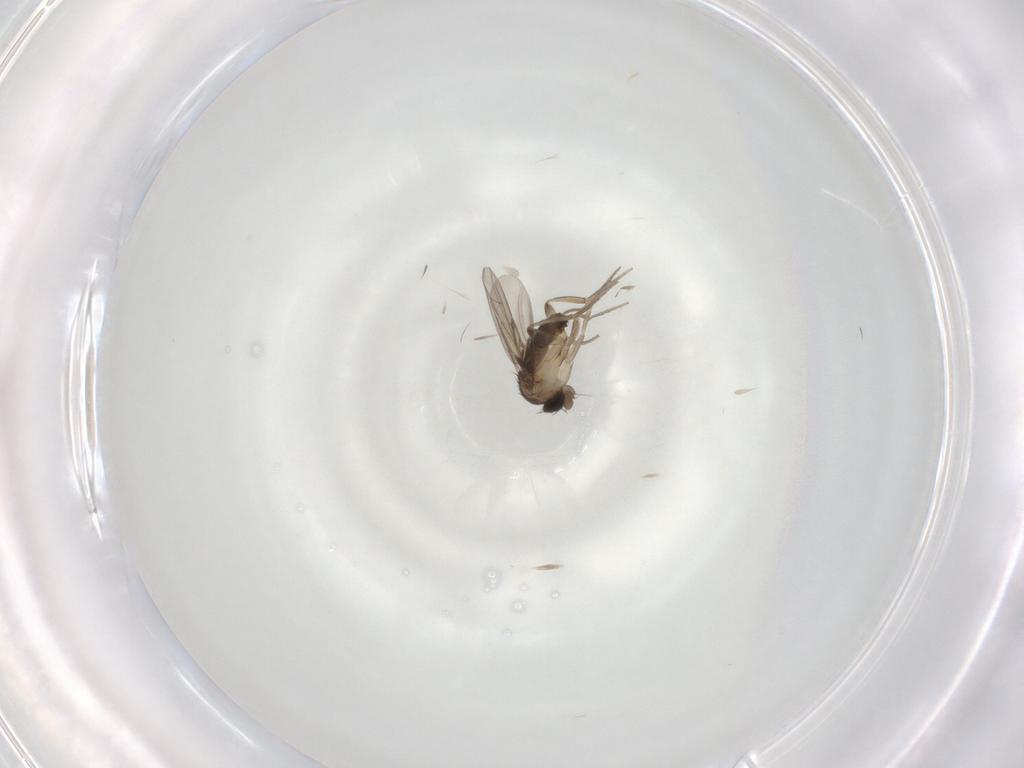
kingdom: Animalia
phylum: Arthropoda
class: Insecta
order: Diptera
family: Phoridae
